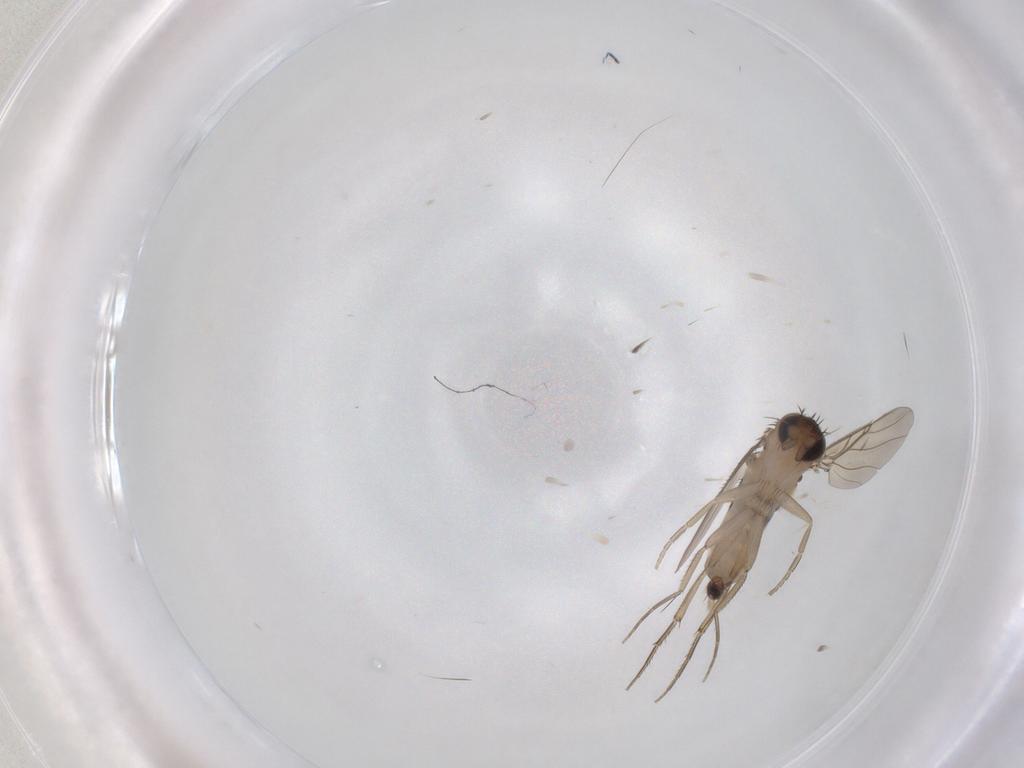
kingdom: Animalia
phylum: Arthropoda
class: Insecta
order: Diptera
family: Phoridae
